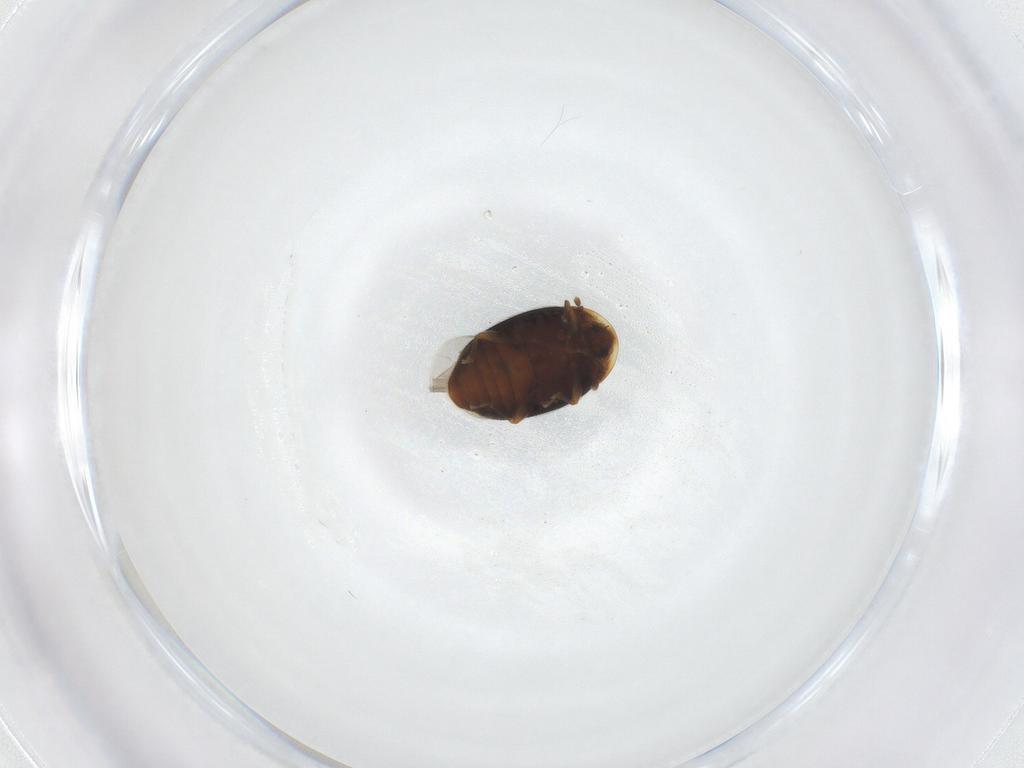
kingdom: Animalia
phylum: Arthropoda
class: Insecta
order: Coleoptera
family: Corylophidae
